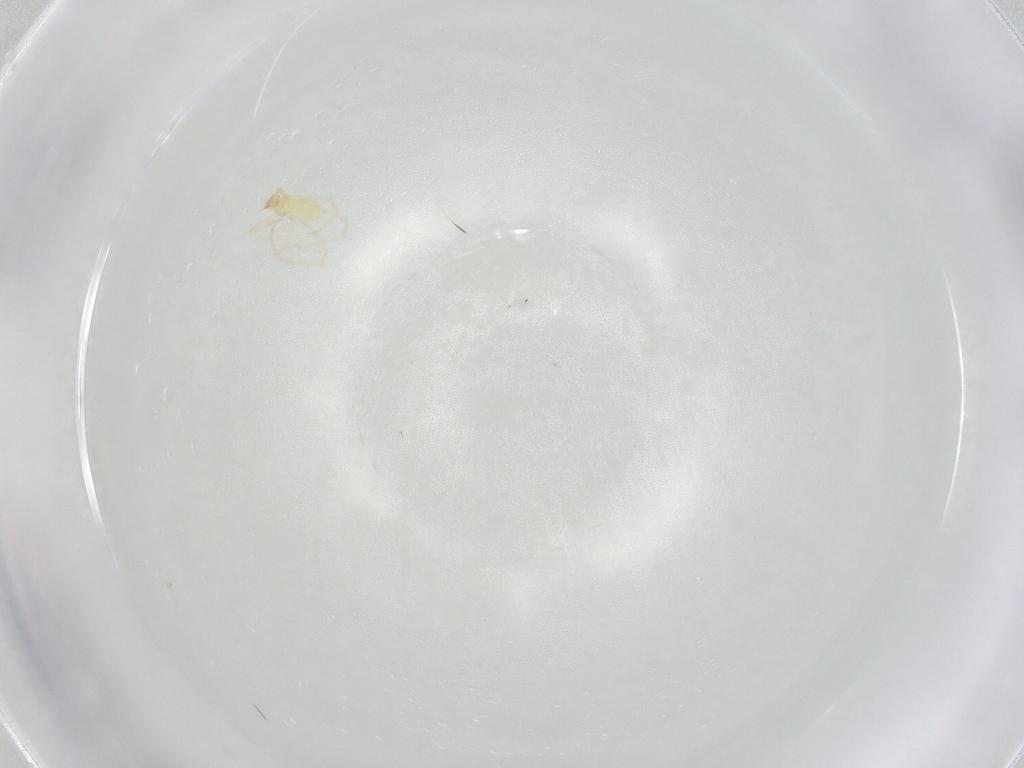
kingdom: Animalia
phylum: Arthropoda
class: Arachnida
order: Trombidiformes
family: Erythraeidae
